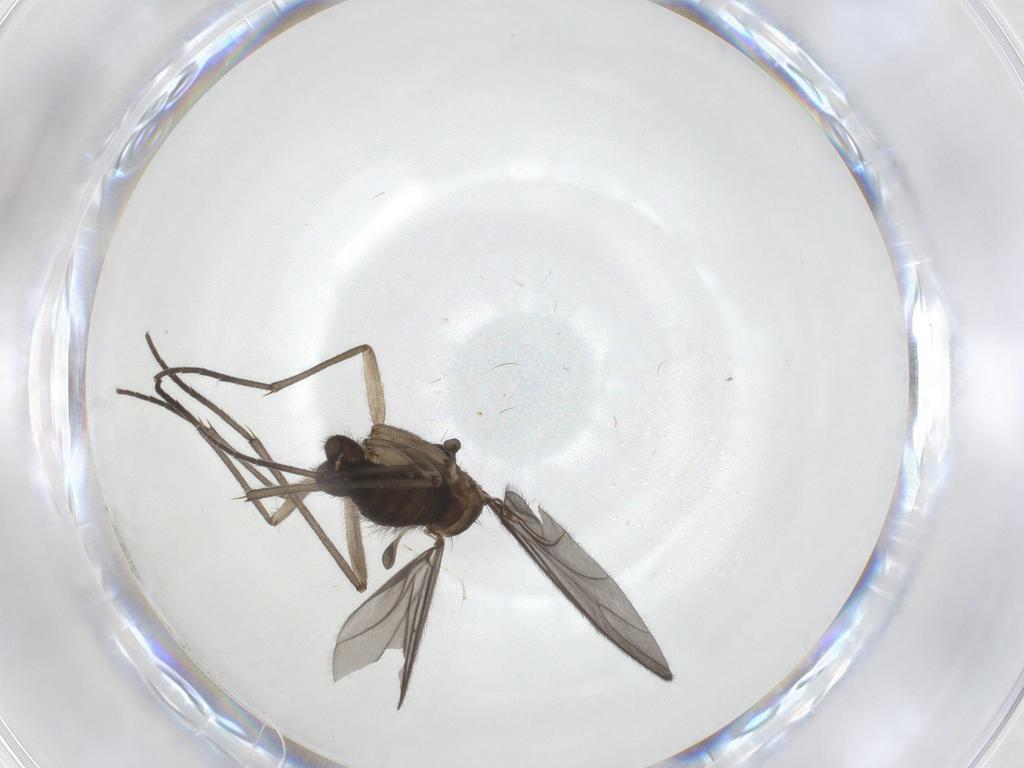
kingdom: Animalia
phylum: Arthropoda
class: Insecta
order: Diptera
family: Sciaridae
